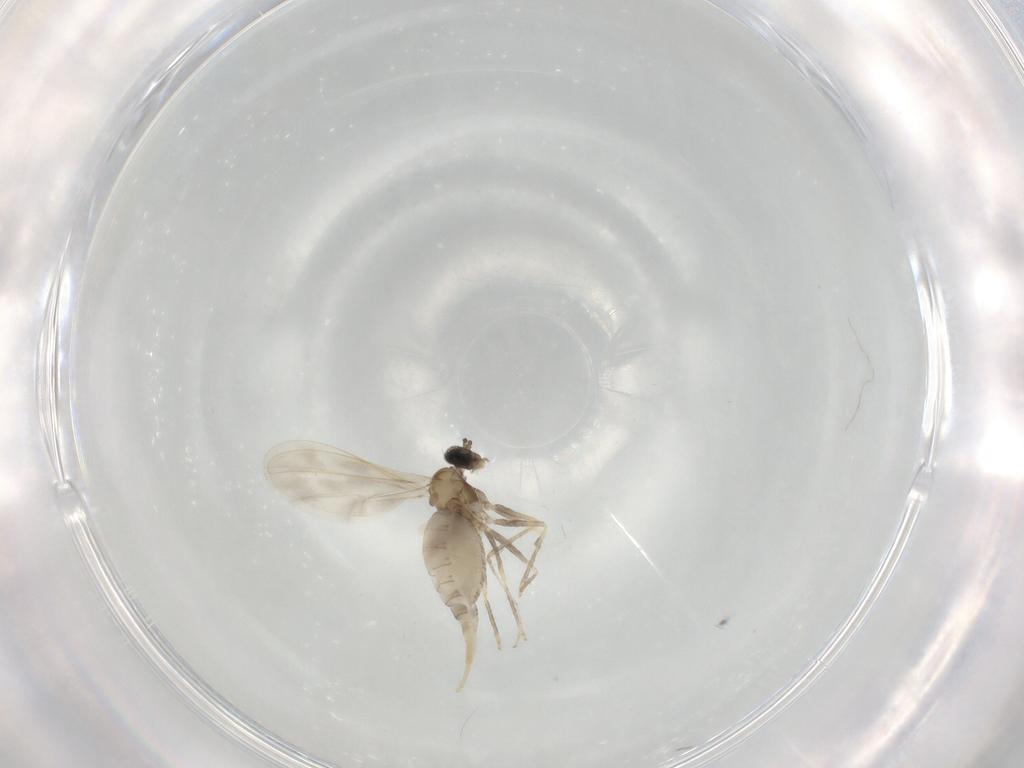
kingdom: Animalia
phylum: Arthropoda
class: Insecta
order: Diptera
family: Cecidomyiidae
